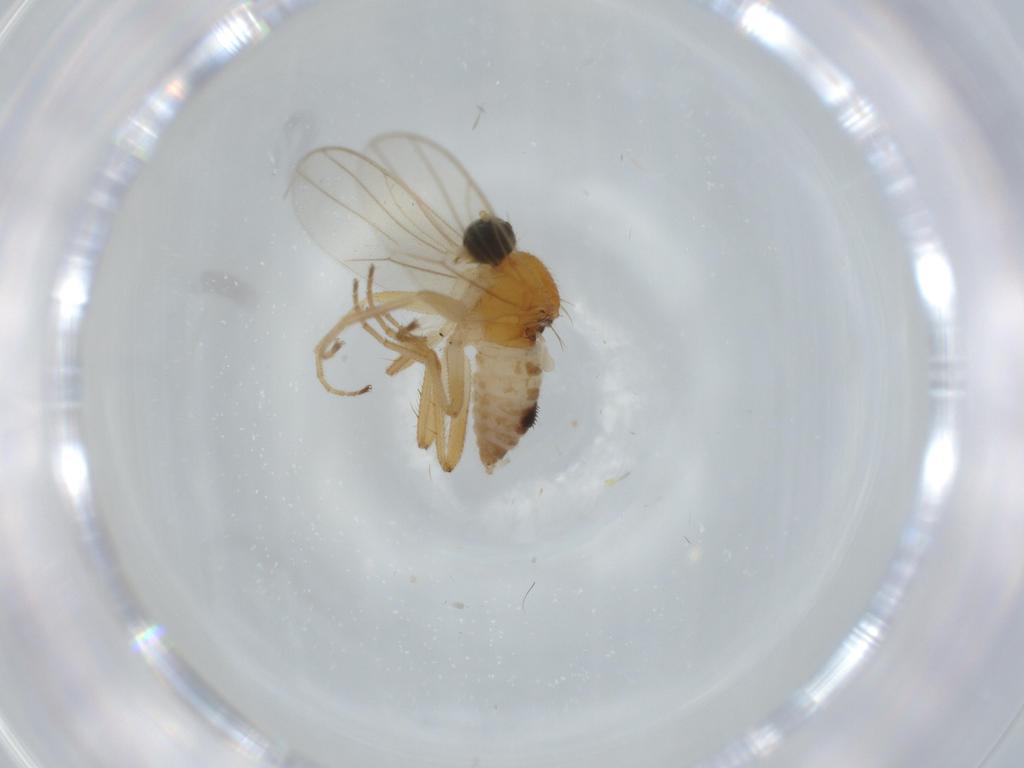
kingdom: Animalia
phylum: Arthropoda
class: Insecta
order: Diptera
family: Hybotidae
